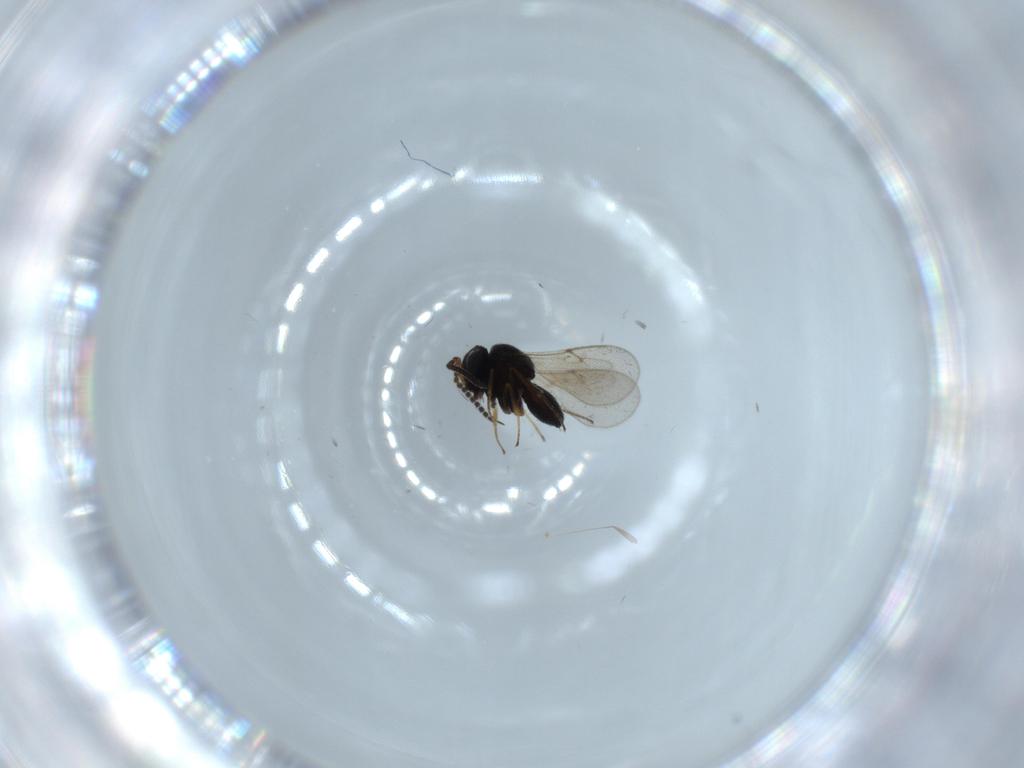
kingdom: Animalia
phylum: Arthropoda
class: Insecta
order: Hymenoptera
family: Scelionidae
